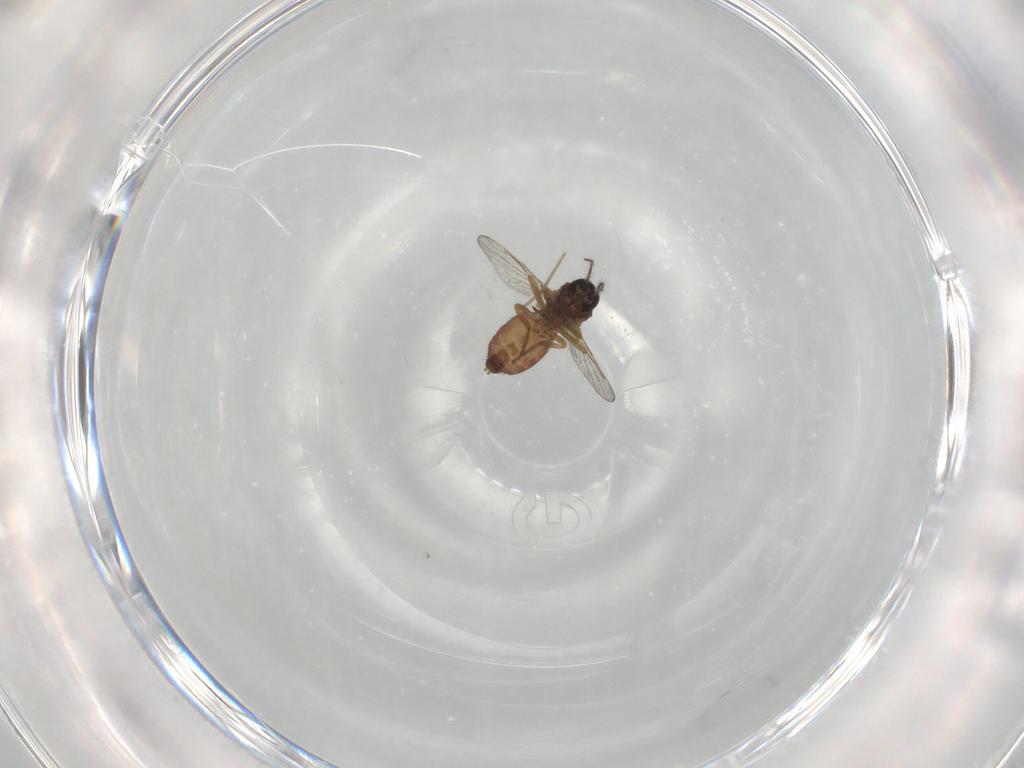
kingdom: Animalia
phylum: Arthropoda
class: Insecta
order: Diptera
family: Chironomidae
